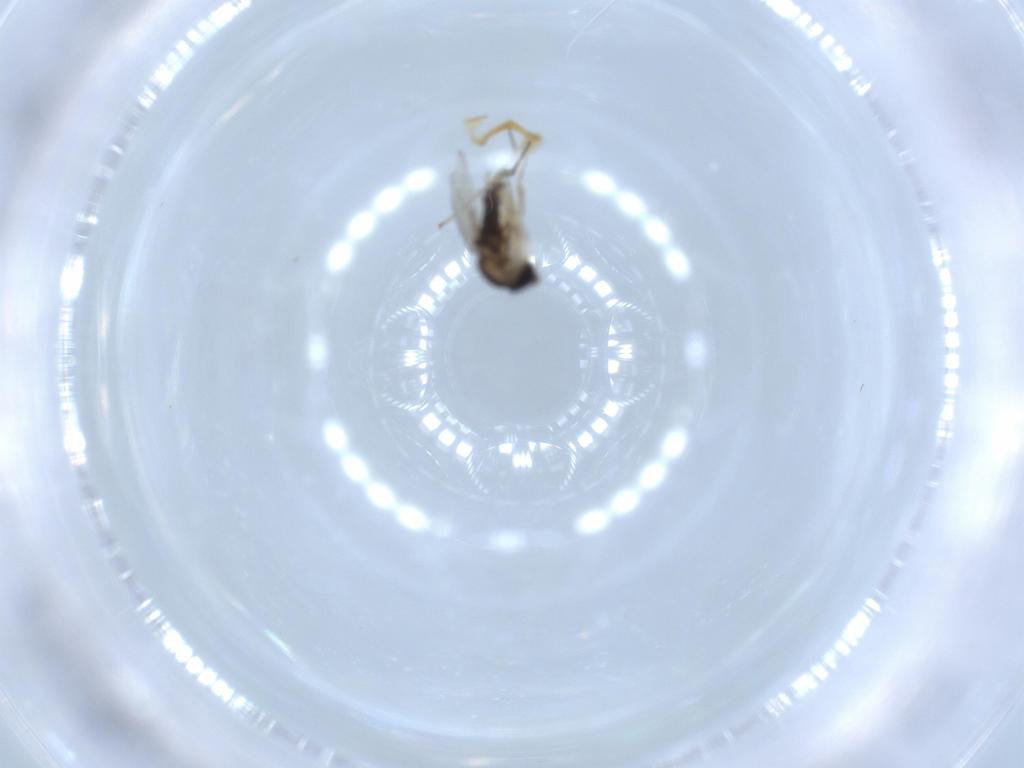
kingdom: Animalia
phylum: Arthropoda
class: Insecta
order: Diptera
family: Phoridae
